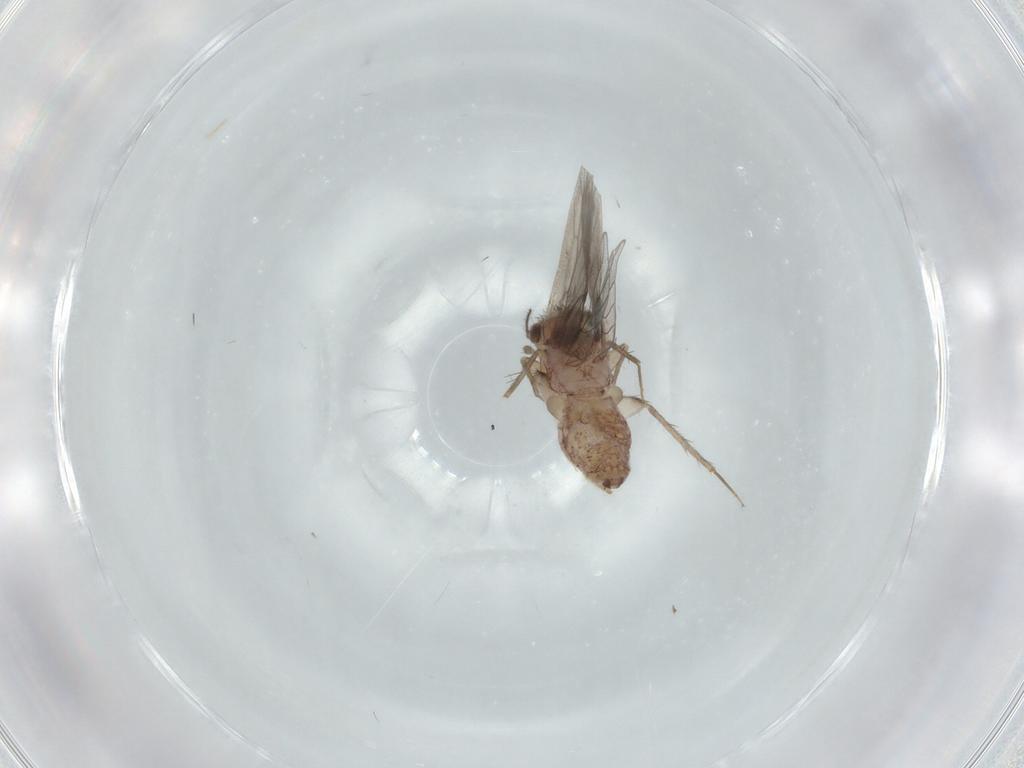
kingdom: Animalia
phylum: Arthropoda
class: Insecta
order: Psocodea
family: Lepidopsocidae
